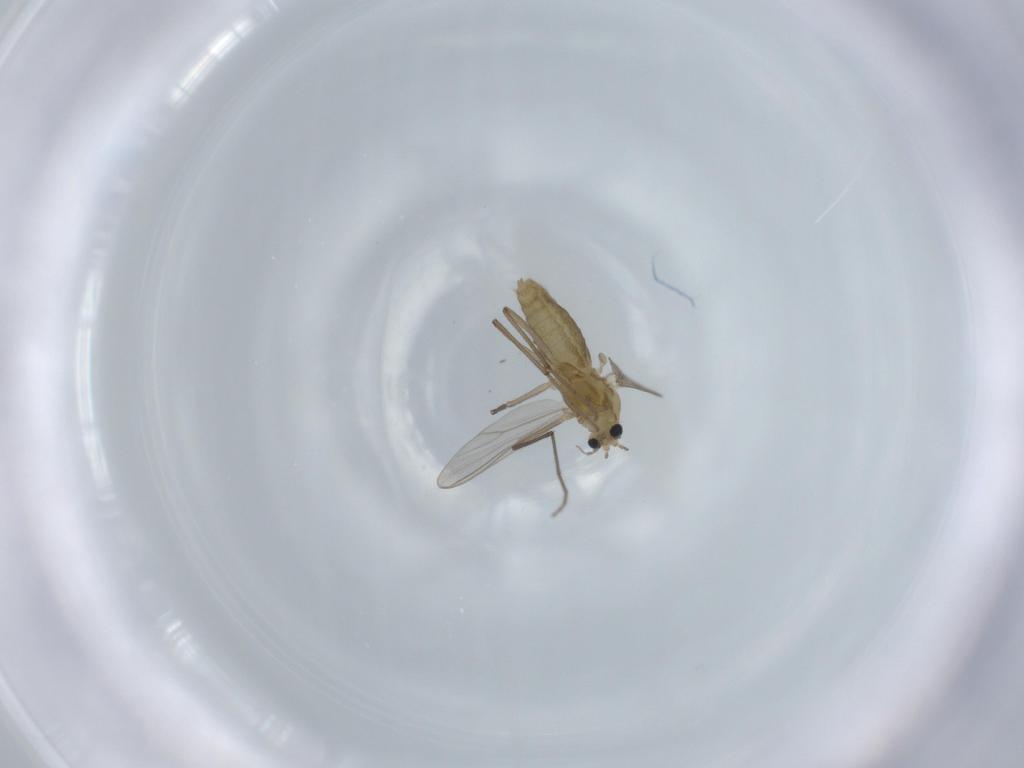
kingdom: Animalia
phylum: Arthropoda
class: Insecta
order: Diptera
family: Chironomidae
